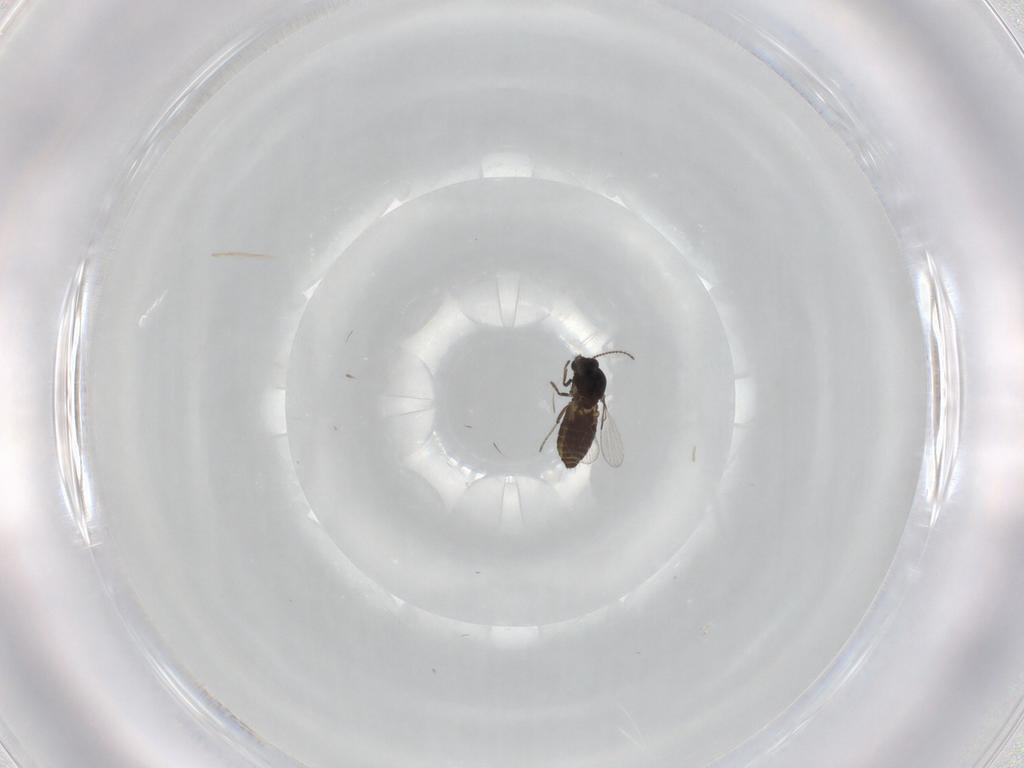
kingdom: Animalia
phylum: Arthropoda
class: Insecta
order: Diptera
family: Ceratopogonidae
